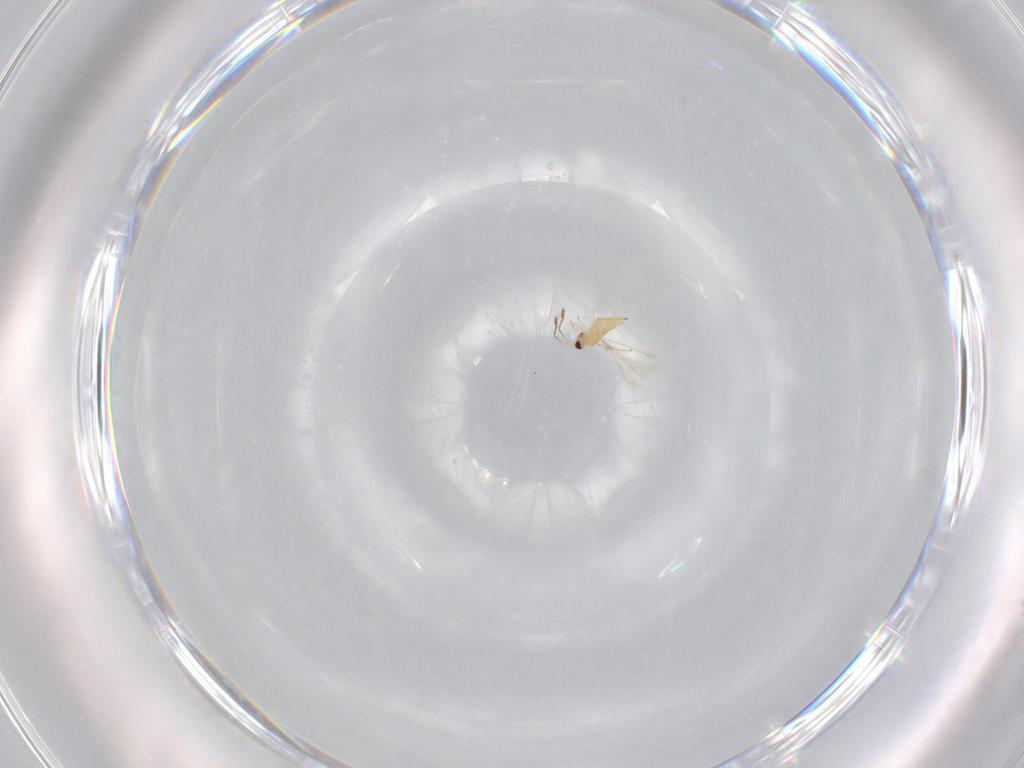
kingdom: Animalia
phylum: Arthropoda
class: Insecta
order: Hymenoptera
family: Mymaridae
